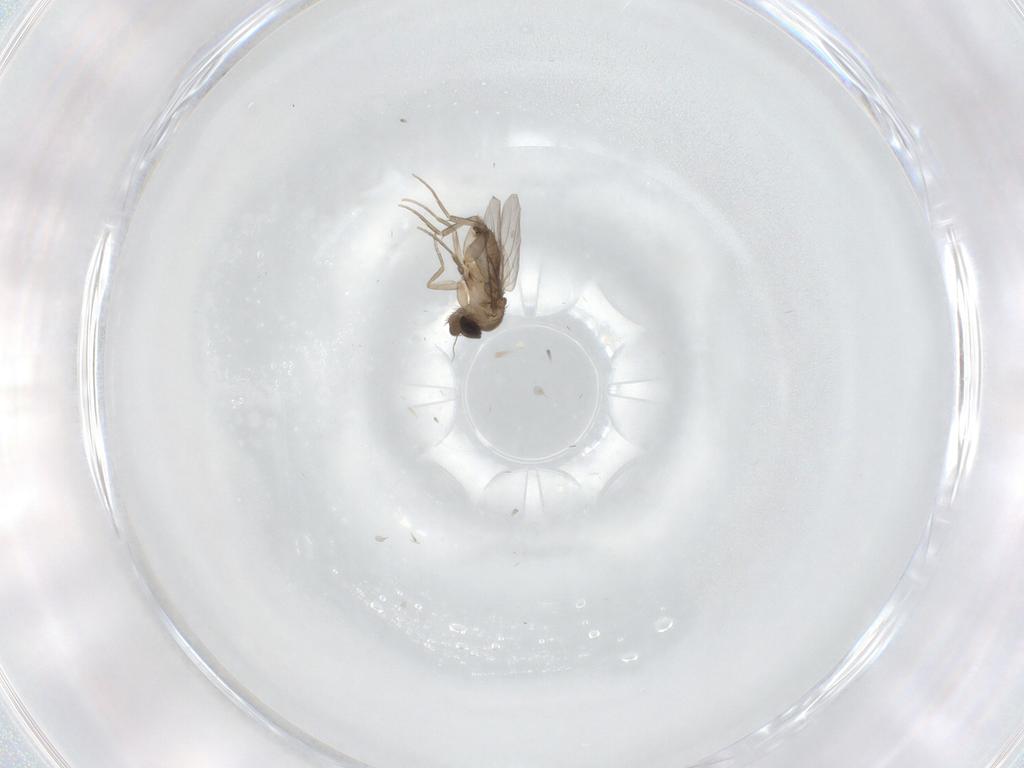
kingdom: Animalia
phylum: Arthropoda
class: Insecta
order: Diptera
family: Phoridae
